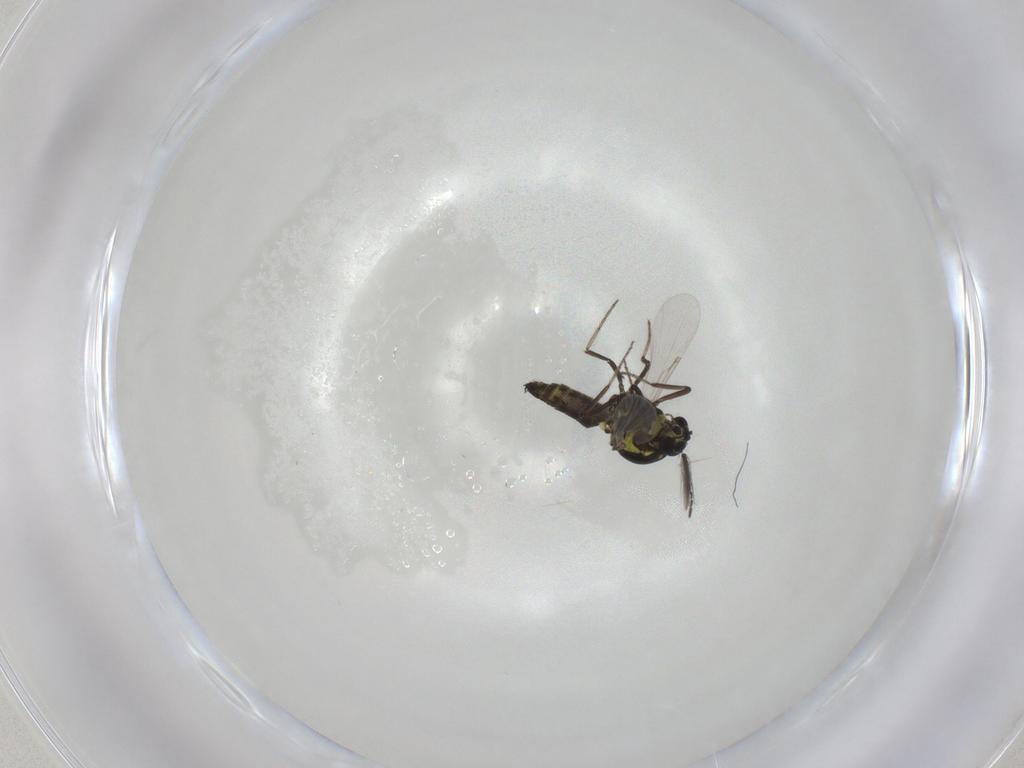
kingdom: Animalia
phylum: Arthropoda
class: Insecta
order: Diptera
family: Ceratopogonidae
